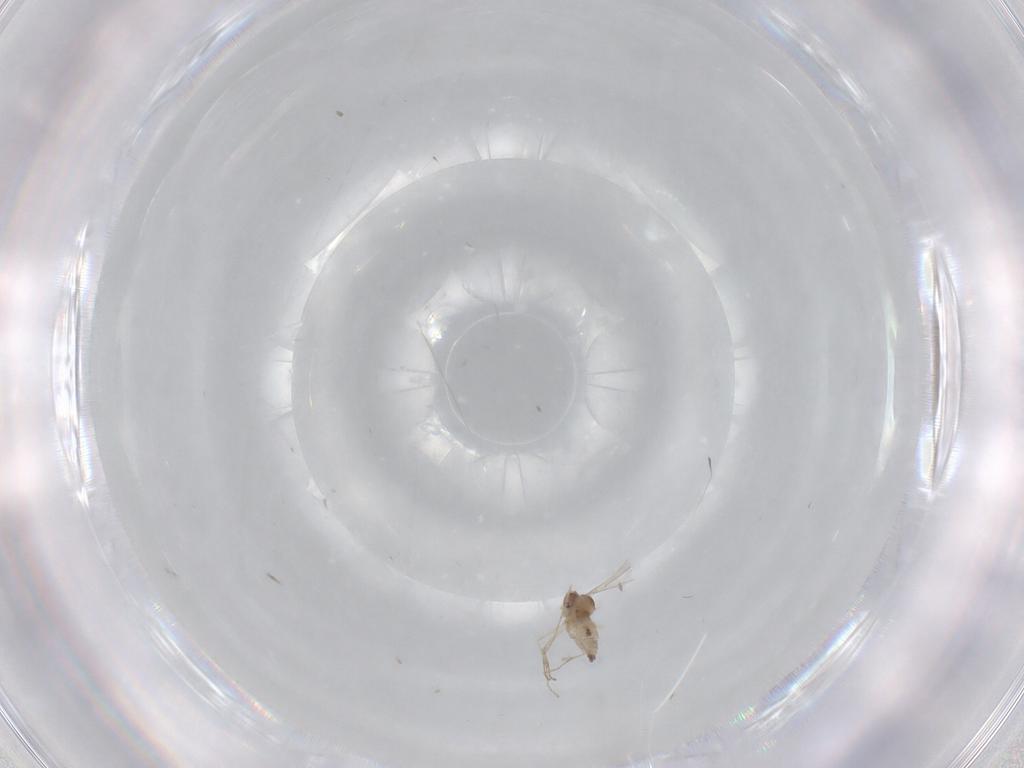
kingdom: Animalia
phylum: Arthropoda
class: Insecta
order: Diptera
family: Cecidomyiidae
